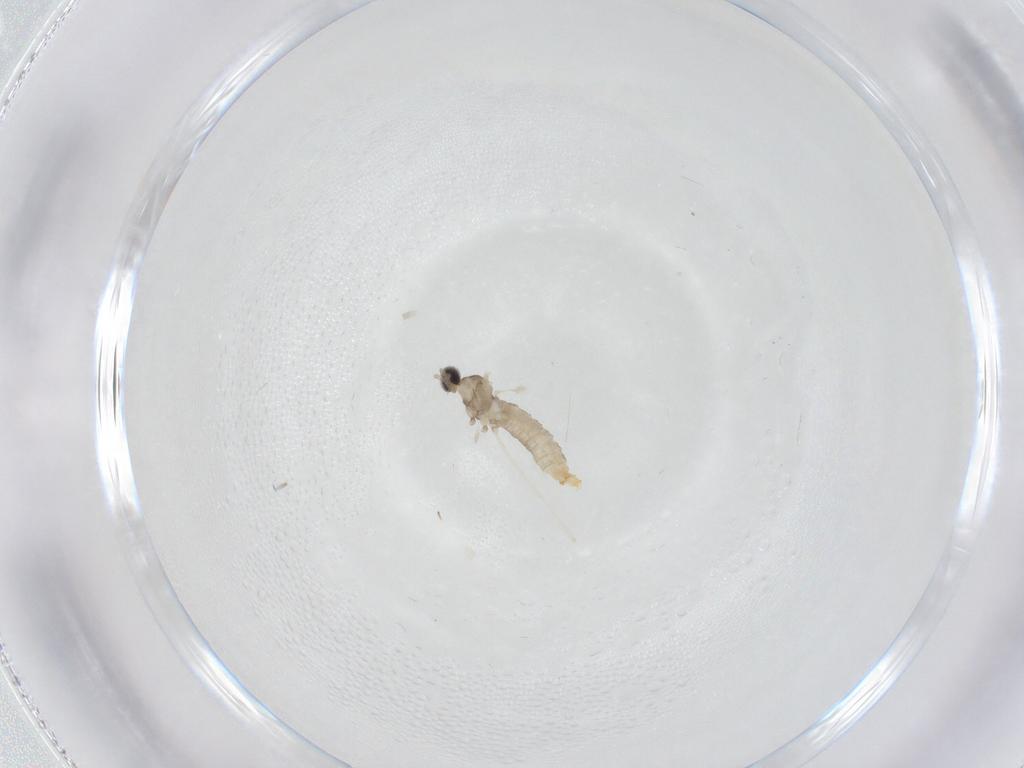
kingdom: Animalia
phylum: Arthropoda
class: Insecta
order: Diptera
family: Cecidomyiidae
